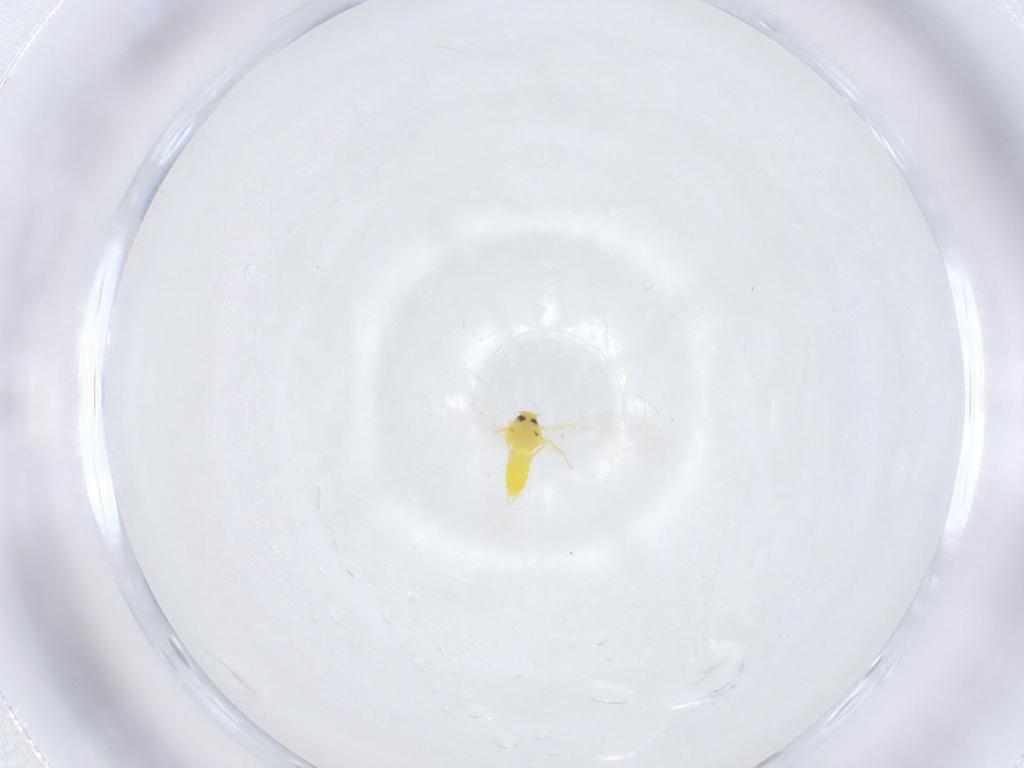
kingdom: Animalia
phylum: Arthropoda
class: Insecta
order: Hemiptera
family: Aleyrodidae
